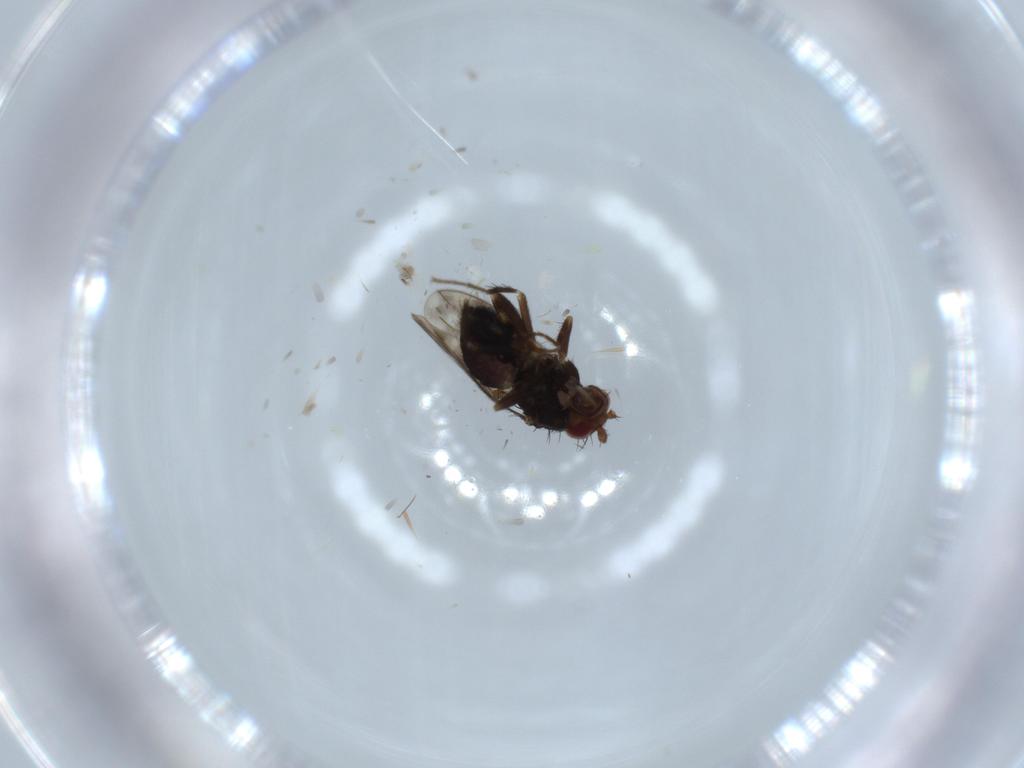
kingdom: Animalia
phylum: Arthropoda
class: Insecta
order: Diptera
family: Sphaeroceridae
